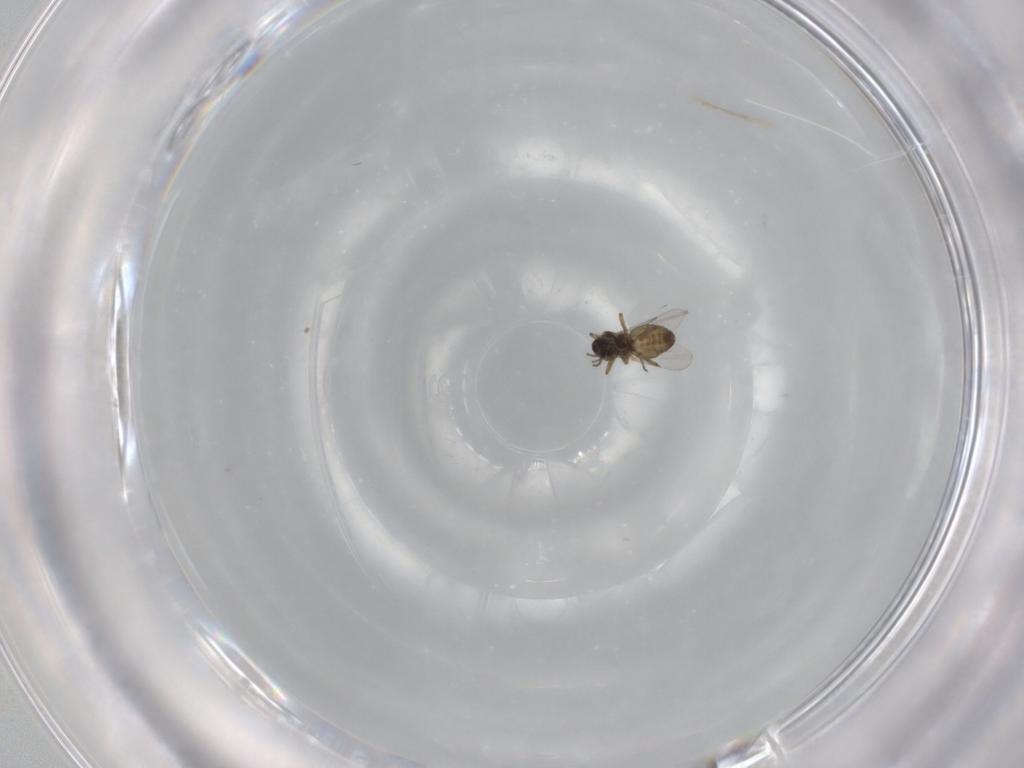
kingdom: Animalia
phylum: Arthropoda
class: Insecta
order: Diptera
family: Ceratopogonidae
